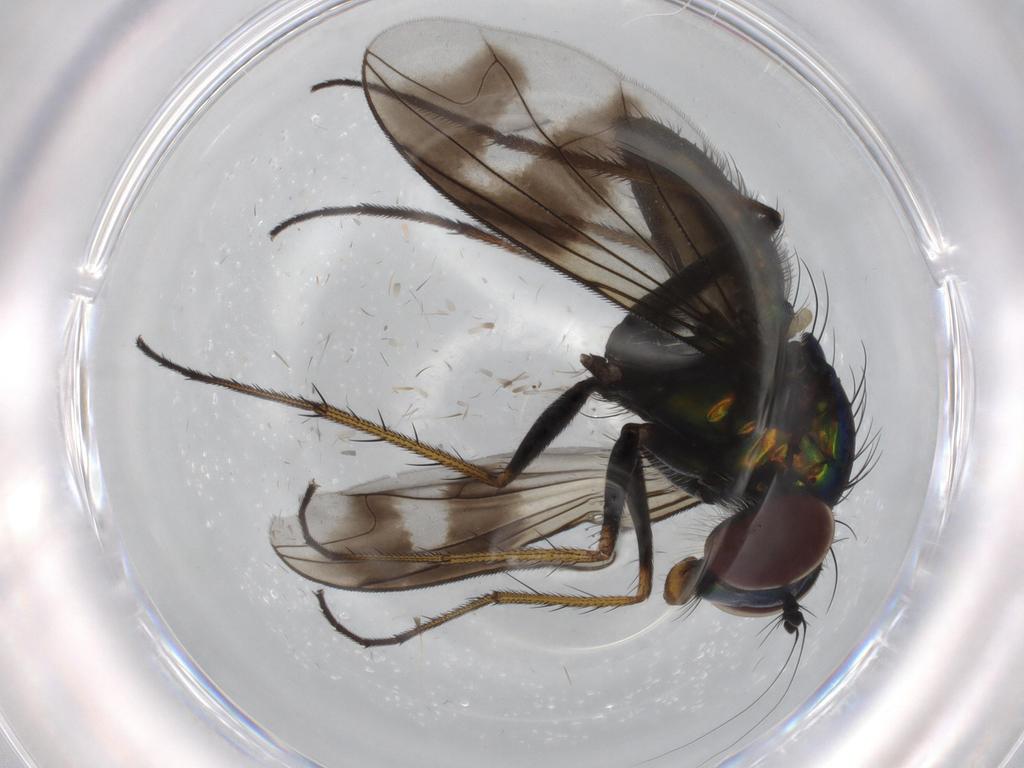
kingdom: Animalia
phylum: Arthropoda
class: Insecta
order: Diptera
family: Dolichopodidae
